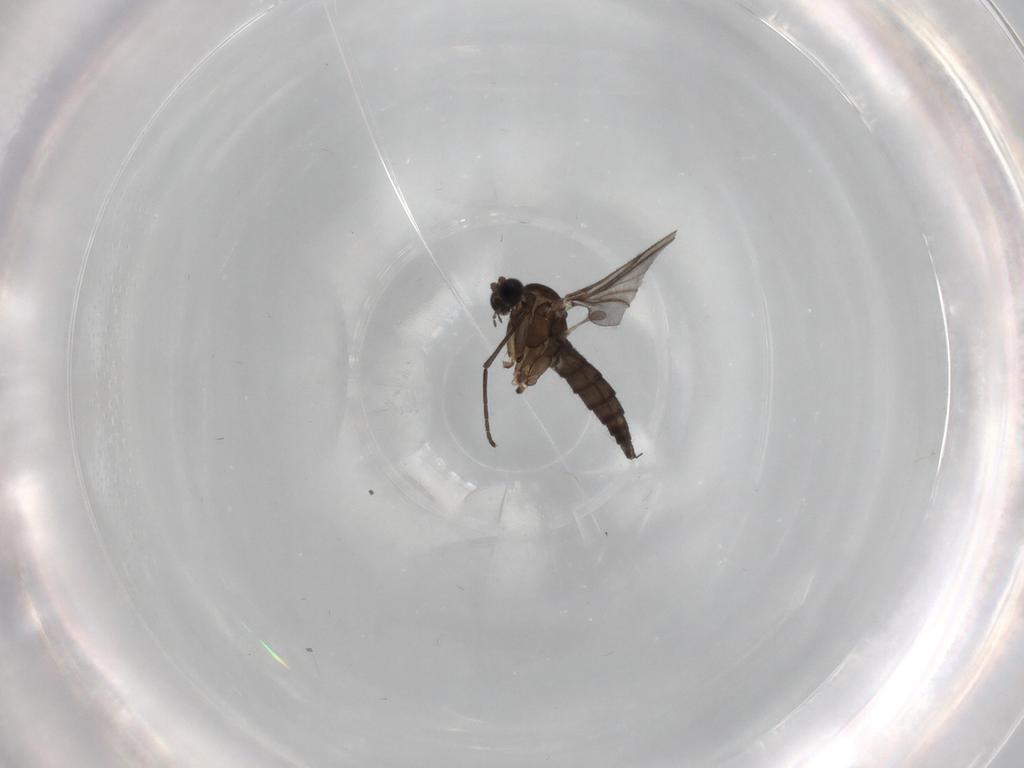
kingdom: Animalia
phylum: Arthropoda
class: Insecta
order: Diptera
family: Sciaridae
